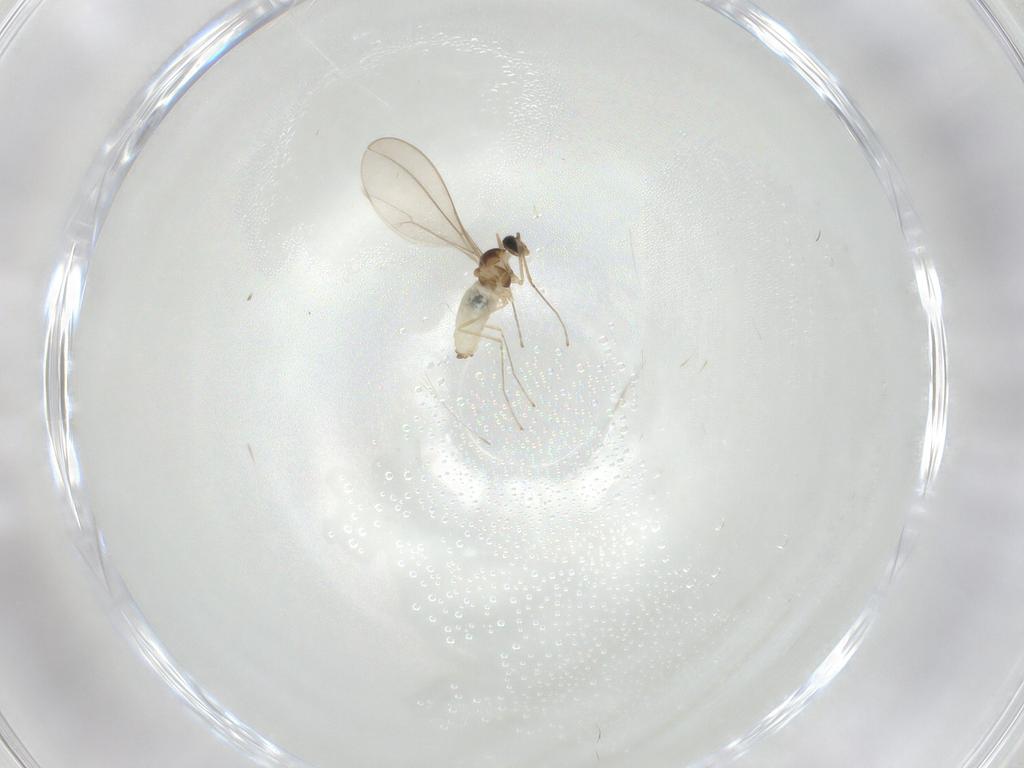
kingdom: Animalia
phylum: Arthropoda
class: Insecta
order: Diptera
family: Cecidomyiidae
